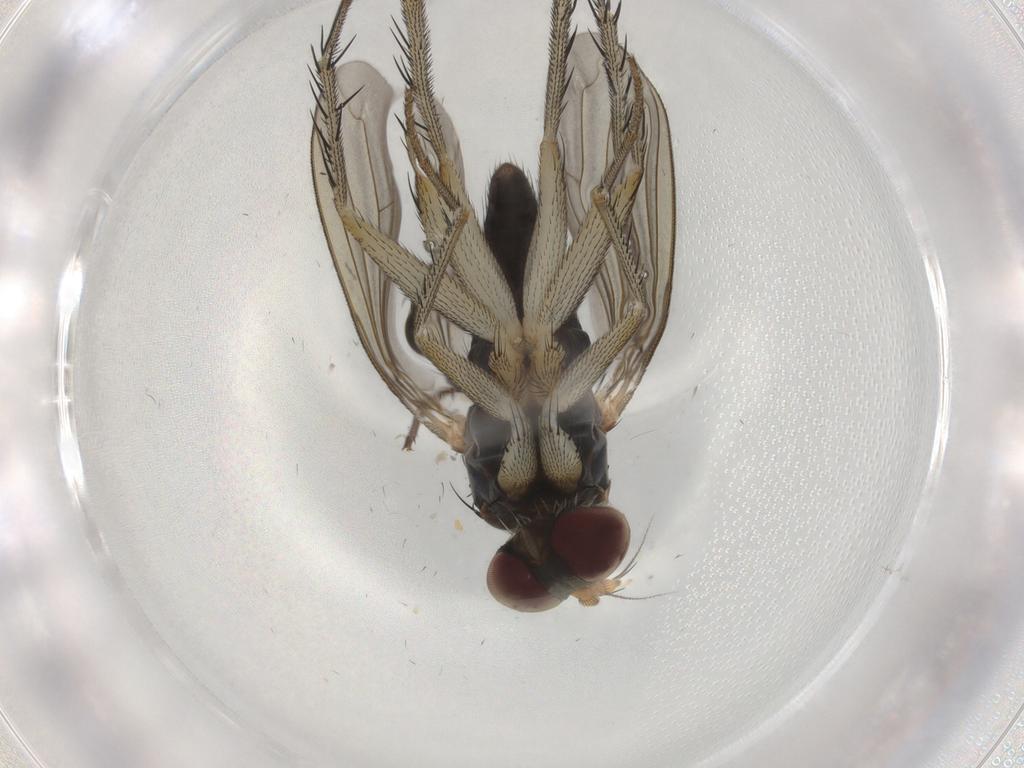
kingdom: Animalia
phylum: Arthropoda
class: Insecta
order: Diptera
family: Dolichopodidae
